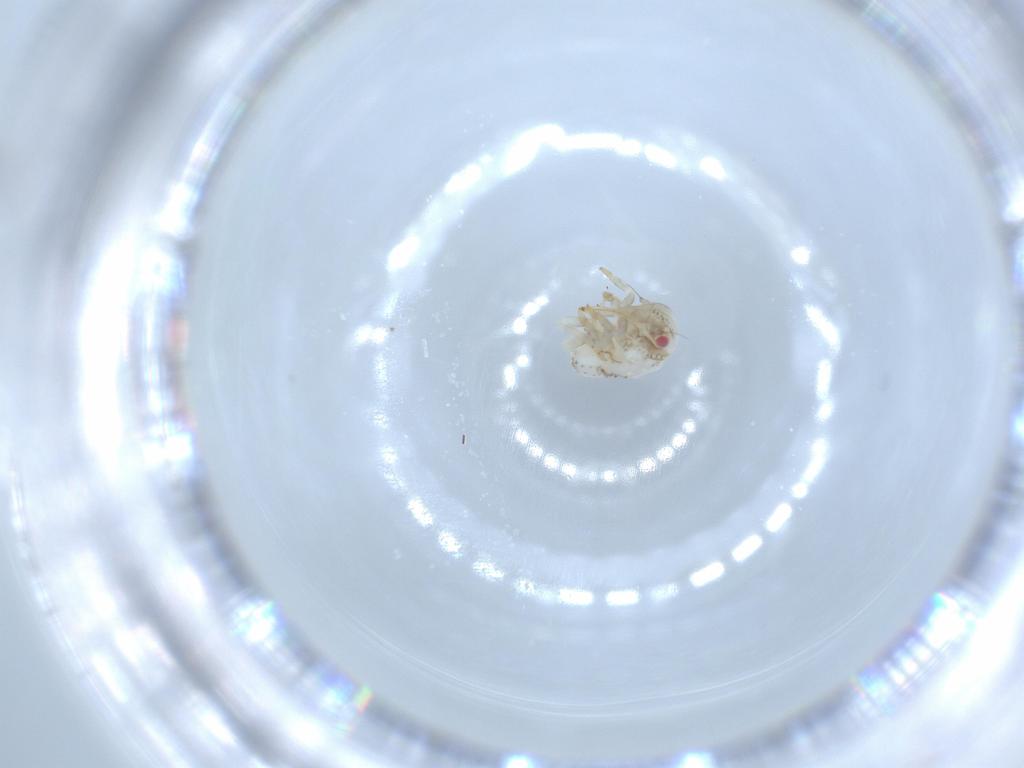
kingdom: Animalia
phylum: Arthropoda
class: Insecta
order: Hemiptera
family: Acanaloniidae
